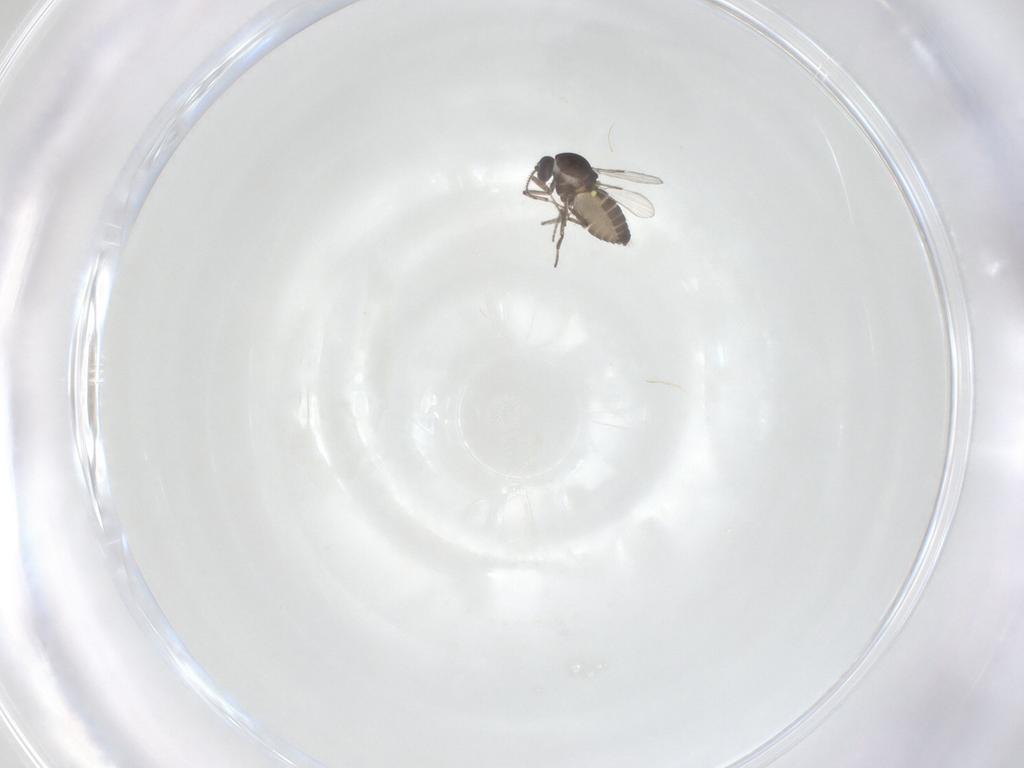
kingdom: Animalia
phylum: Arthropoda
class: Insecta
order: Diptera
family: Ceratopogonidae
